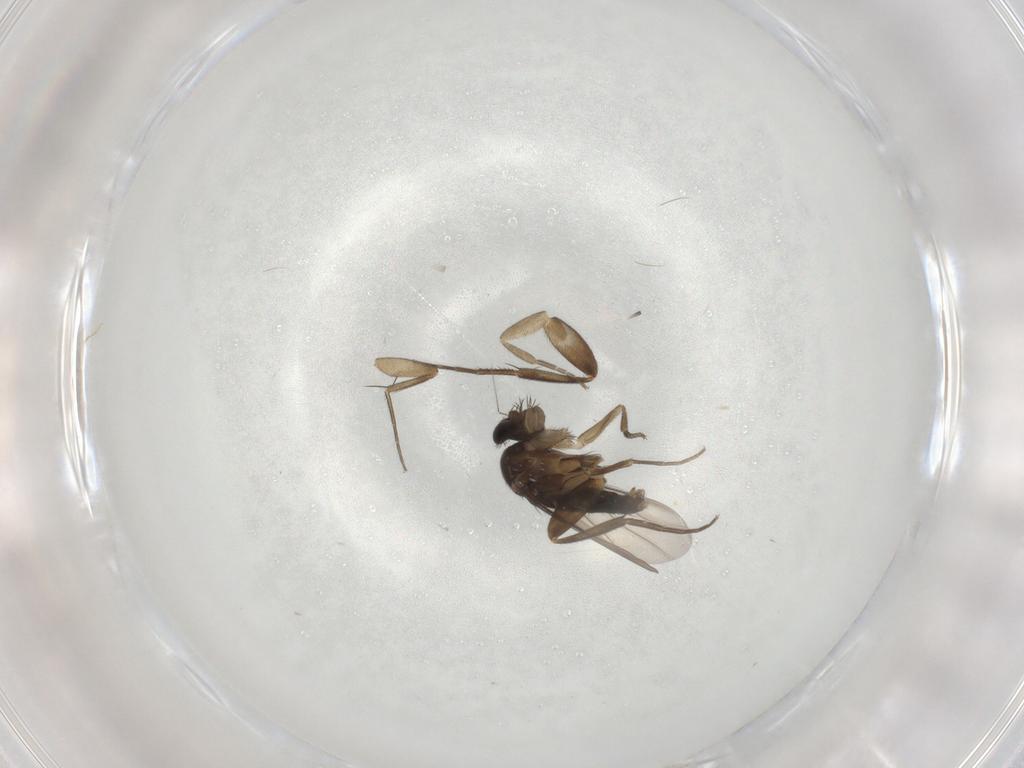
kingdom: Animalia
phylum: Arthropoda
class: Insecta
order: Diptera
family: Phoridae
